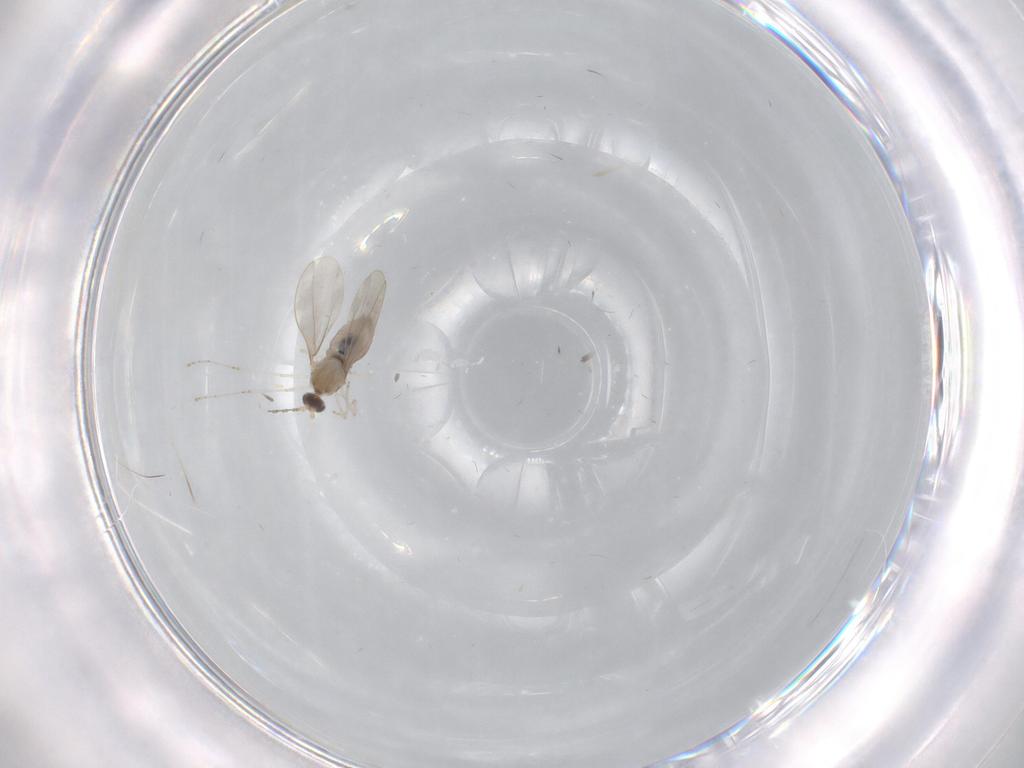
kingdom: Animalia
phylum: Arthropoda
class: Insecta
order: Diptera
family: Cecidomyiidae
